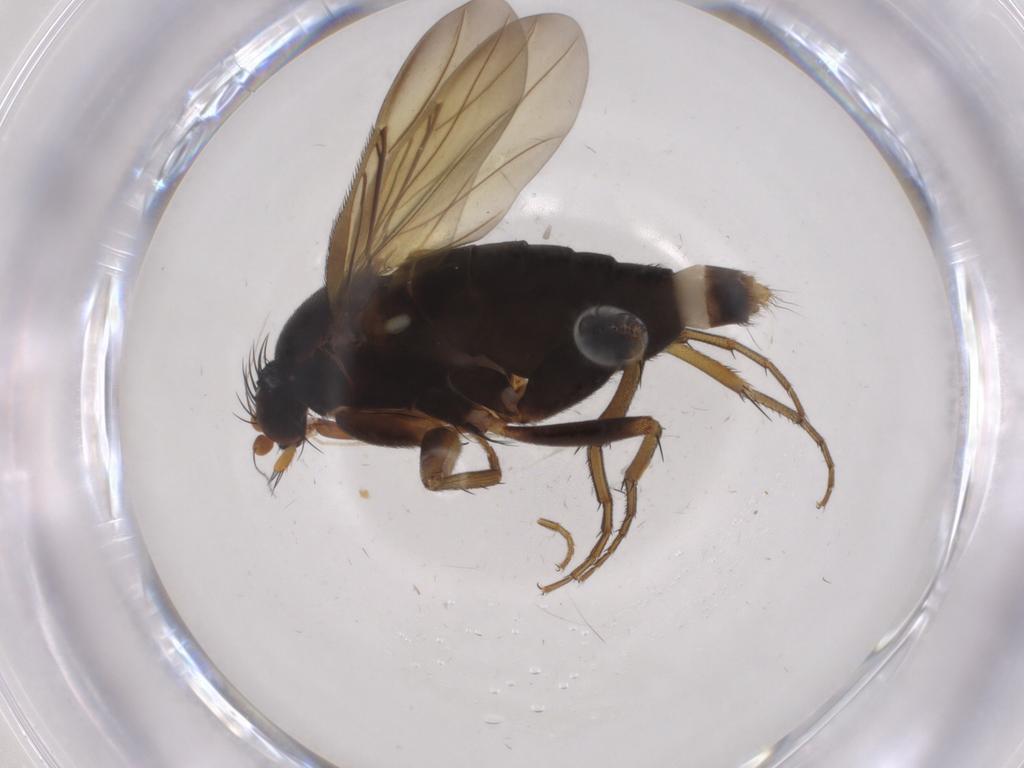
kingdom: Animalia
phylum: Arthropoda
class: Insecta
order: Diptera
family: Phoridae
